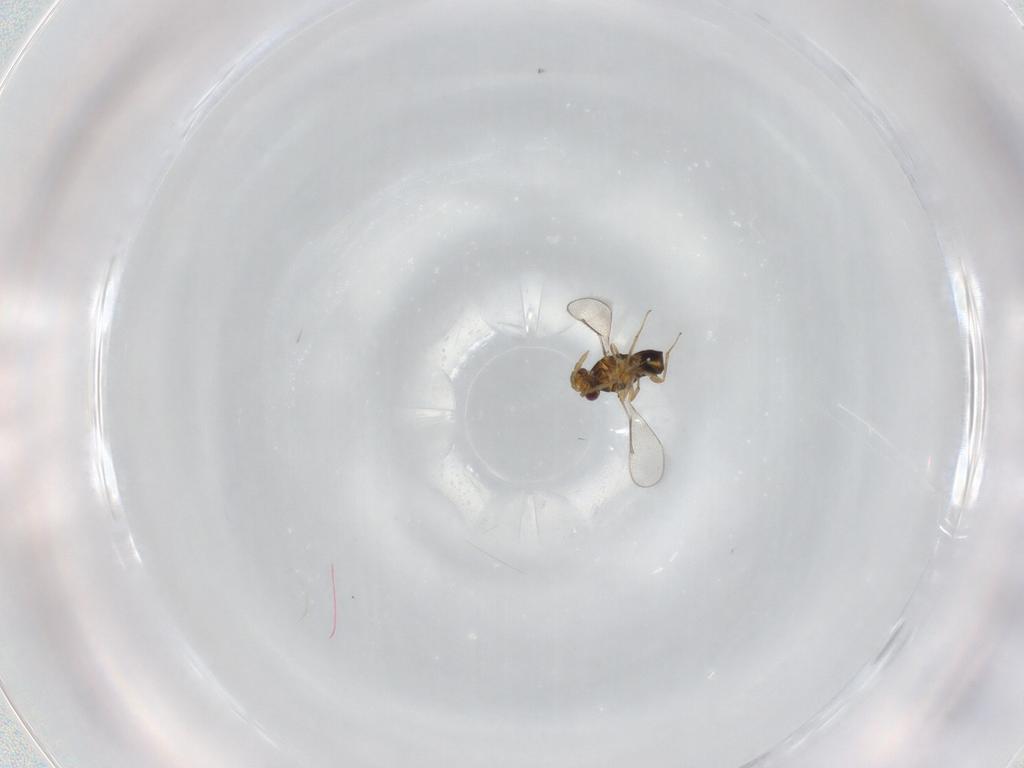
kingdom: Animalia
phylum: Arthropoda
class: Insecta
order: Hymenoptera
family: Aphelinidae
